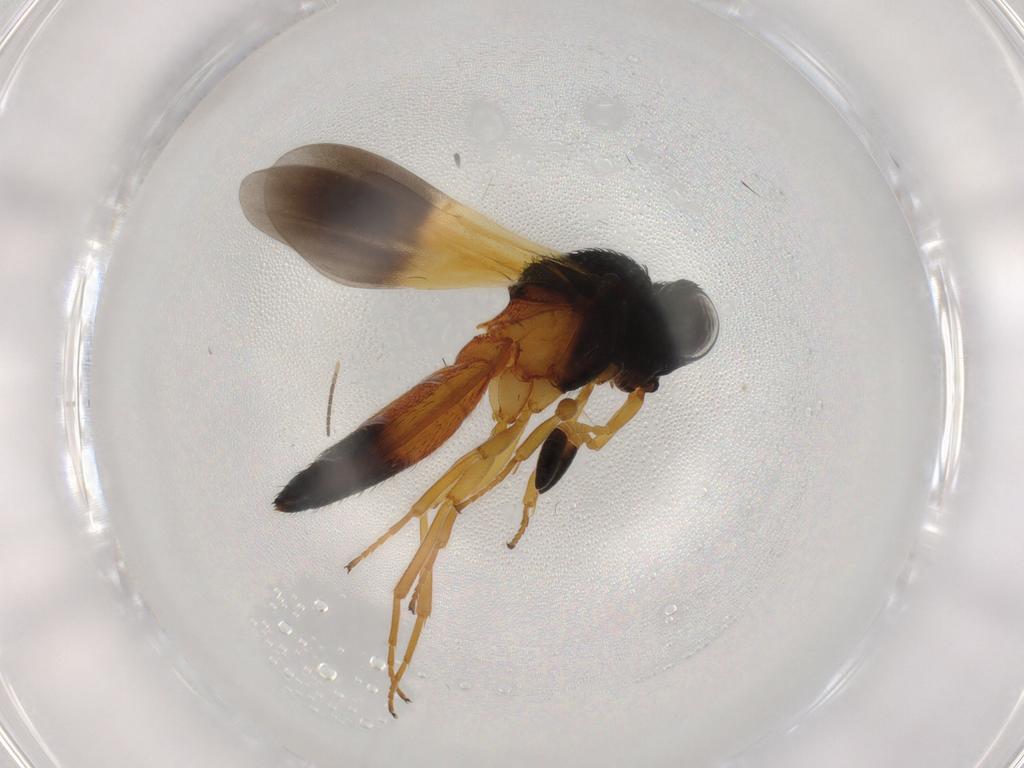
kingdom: Animalia
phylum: Arthropoda
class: Insecta
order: Hymenoptera
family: Scelionidae
